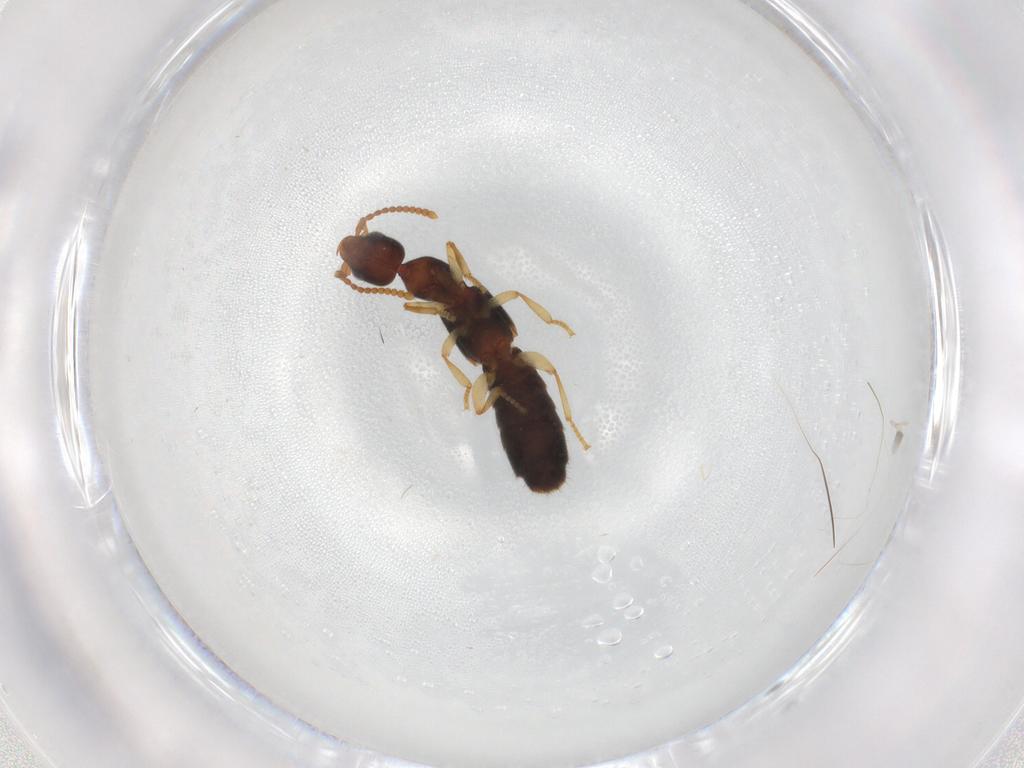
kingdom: Animalia
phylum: Arthropoda
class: Insecta
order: Coleoptera
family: Staphylinidae
